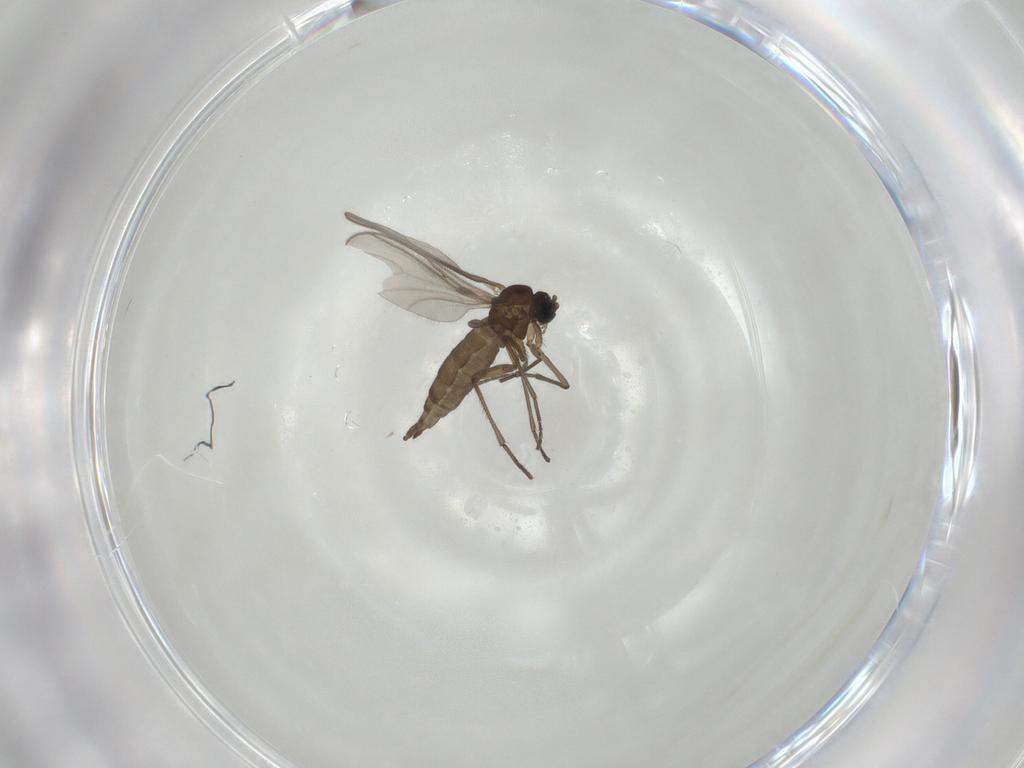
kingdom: Animalia
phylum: Arthropoda
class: Insecta
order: Diptera
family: Sciaridae
